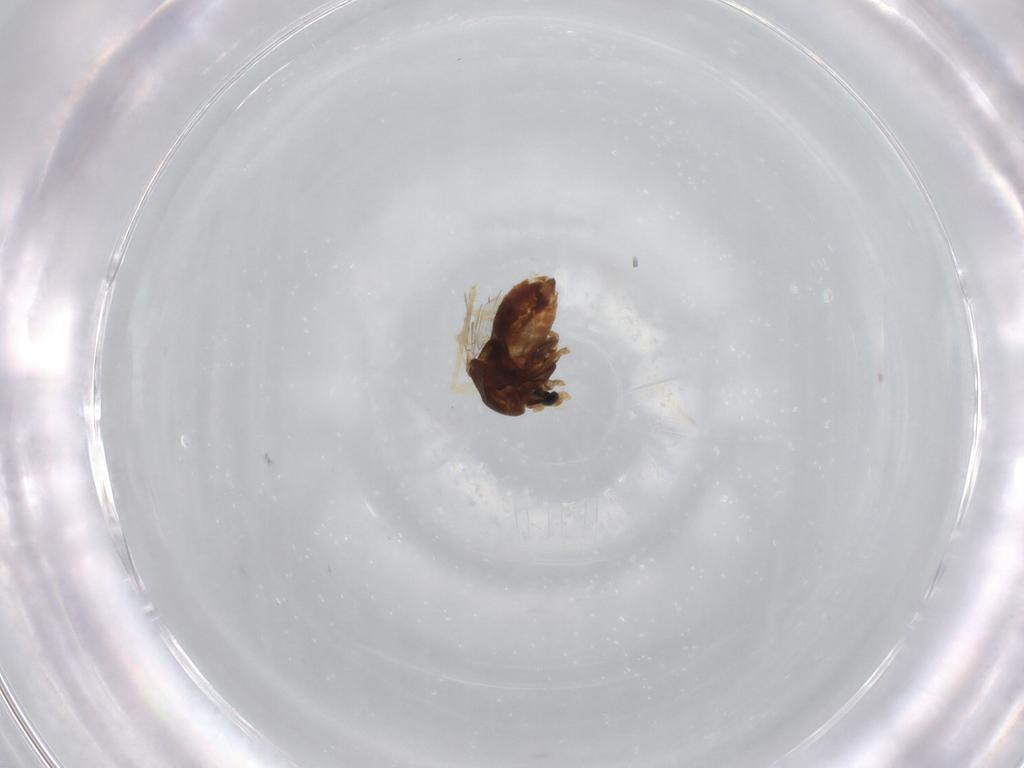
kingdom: Animalia
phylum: Arthropoda
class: Insecta
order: Diptera
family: Chironomidae
